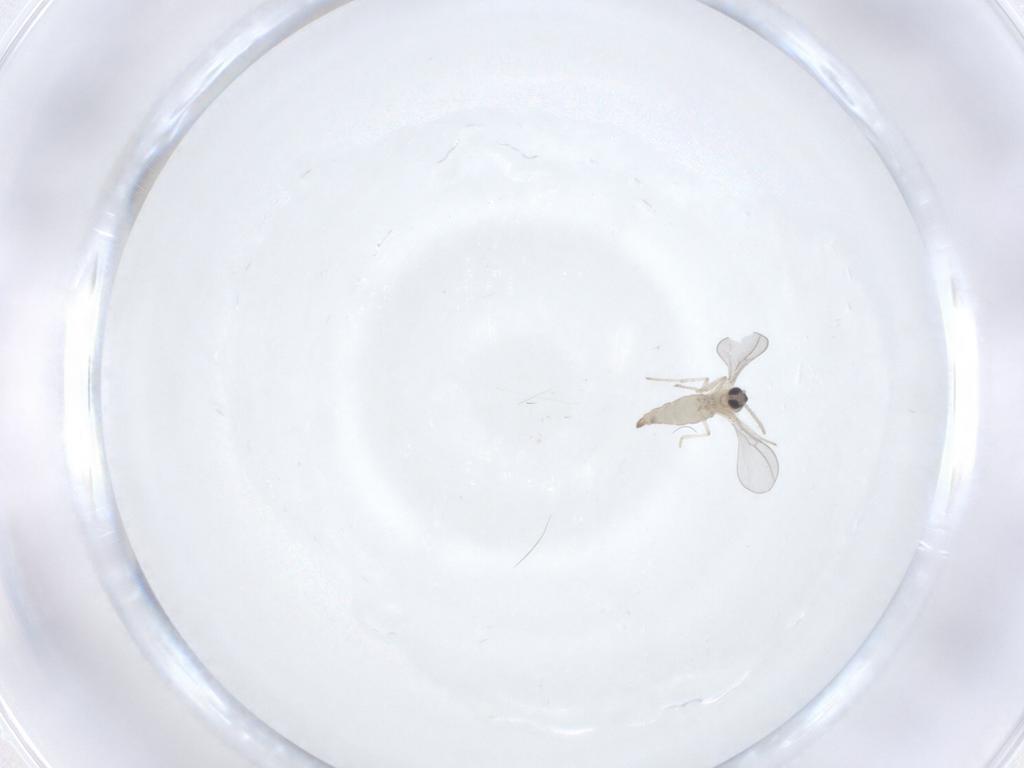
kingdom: Animalia
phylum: Arthropoda
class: Insecta
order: Diptera
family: Cecidomyiidae
